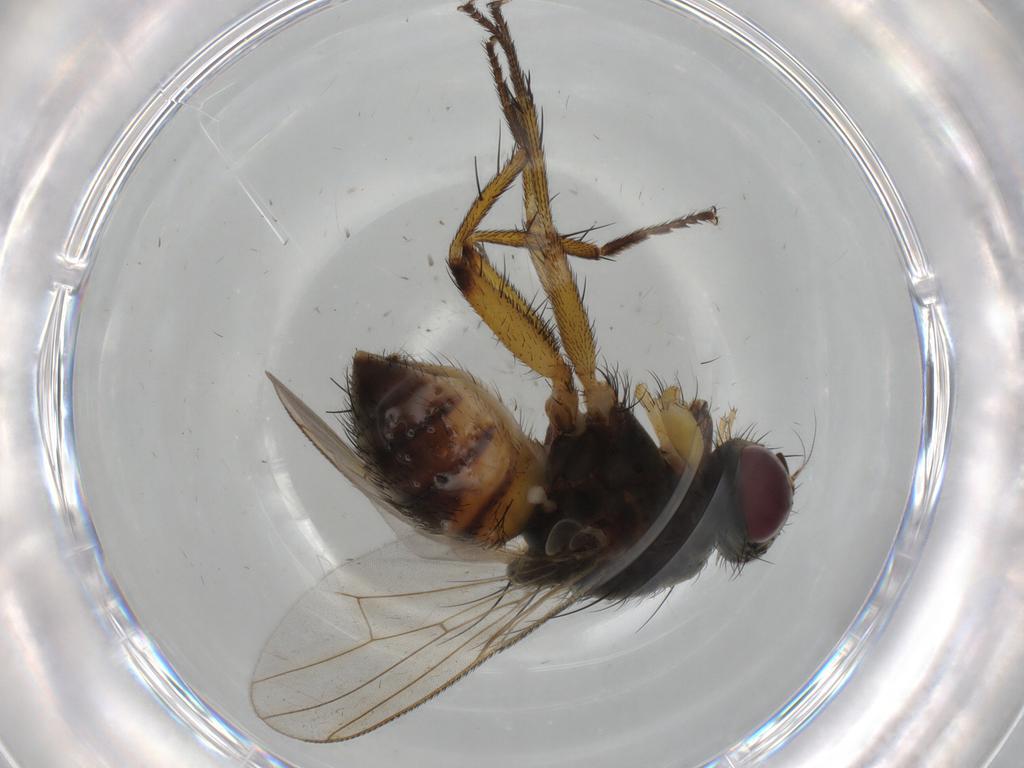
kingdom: Animalia
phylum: Arthropoda
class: Insecta
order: Diptera
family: Muscidae
